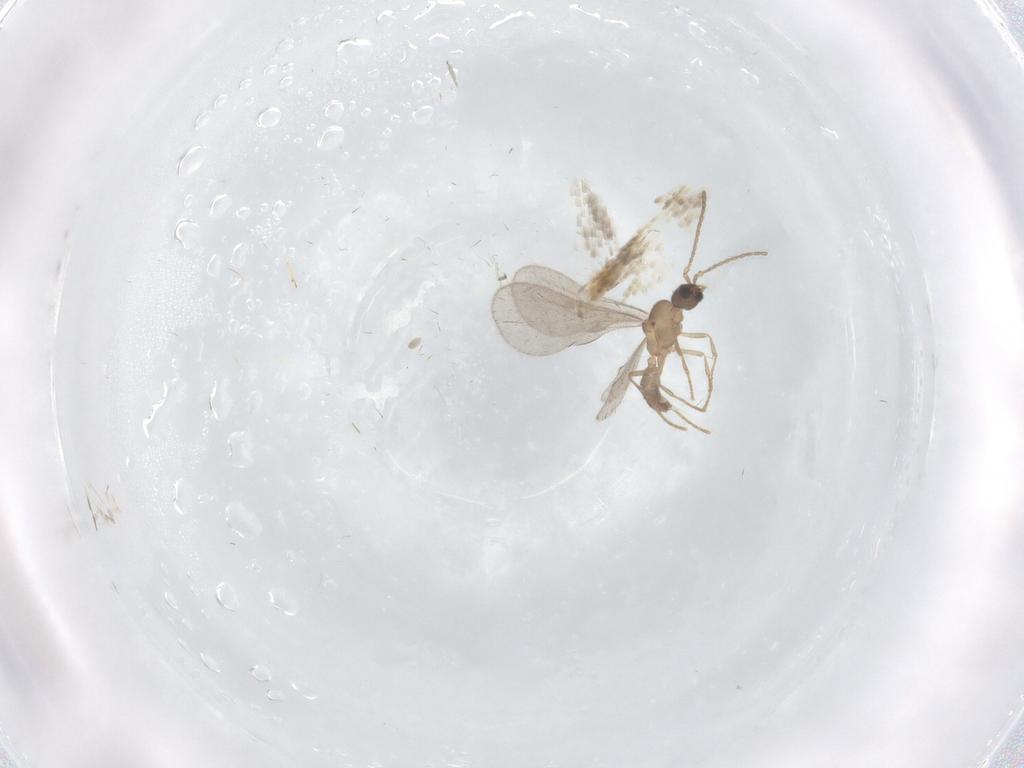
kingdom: Animalia
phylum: Arthropoda
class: Insecta
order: Hymenoptera
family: Formicidae
